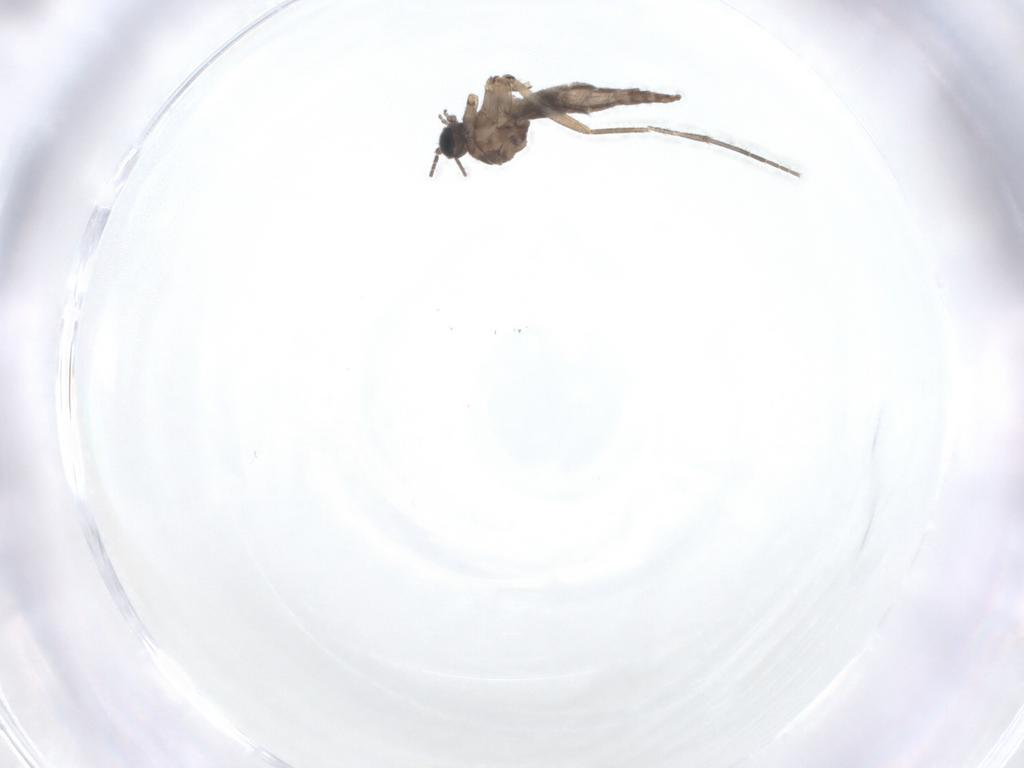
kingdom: Animalia
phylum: Arthropoda
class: Insecta
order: Diptera
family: Sciaridae
